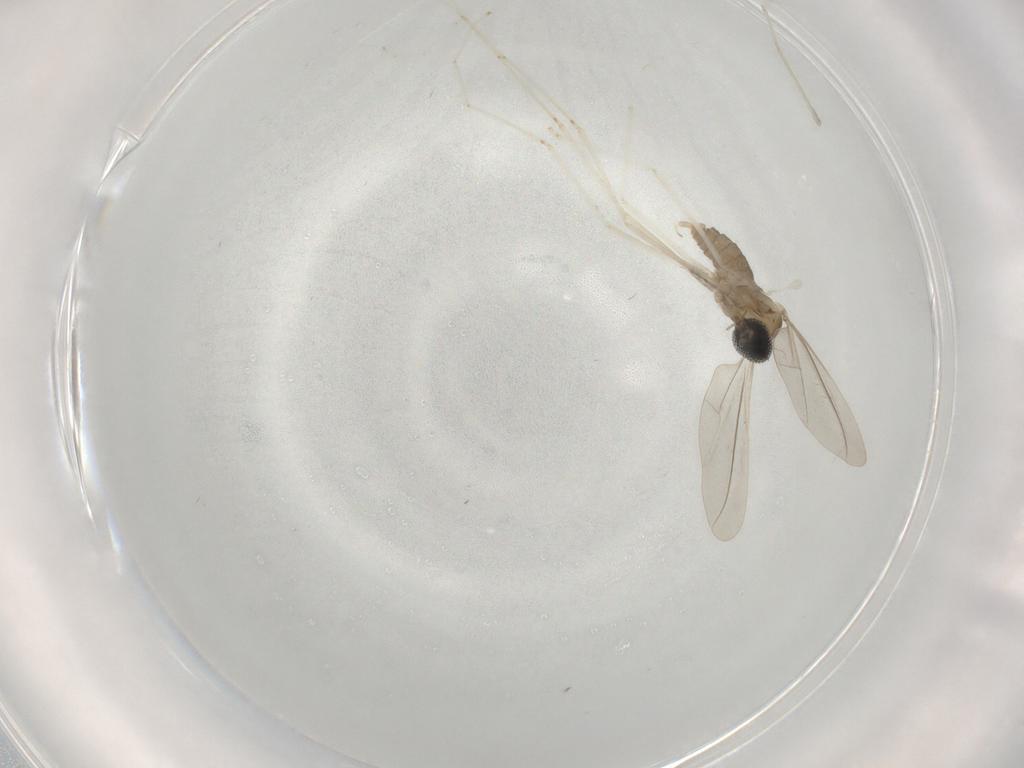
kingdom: Animalia
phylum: Arthropoda
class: Insecta
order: Diptera
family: Cecidomyiidae
